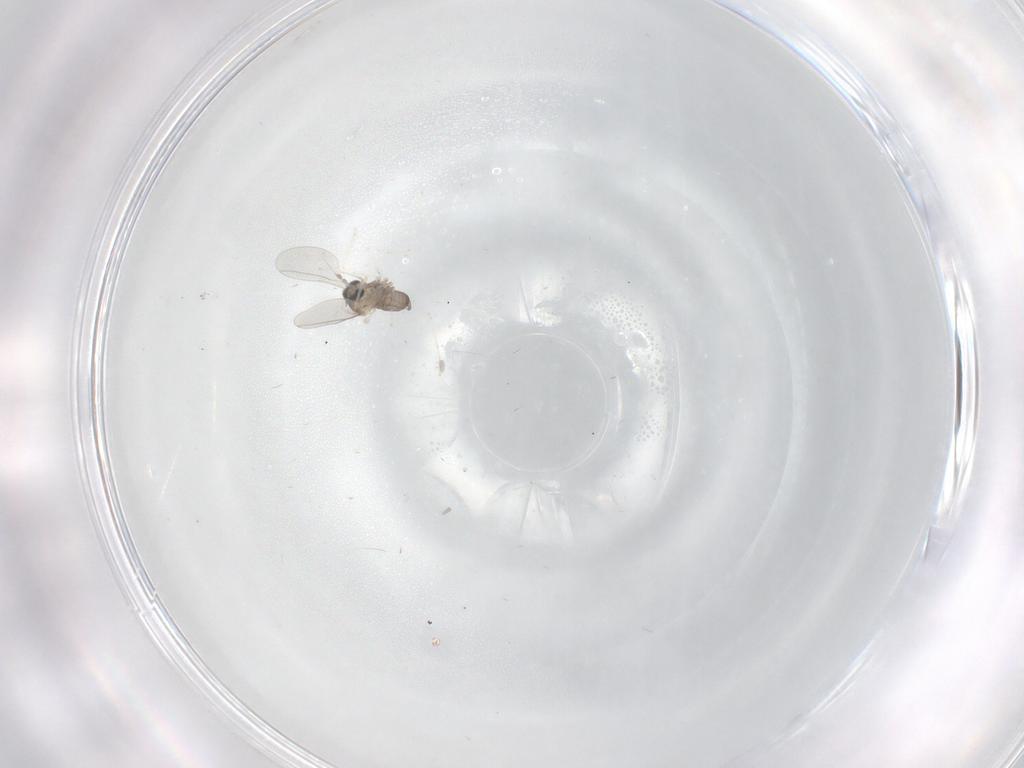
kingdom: Animalia
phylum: Arthropoda
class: Insecta
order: Diptera
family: Cecidomyiidae
